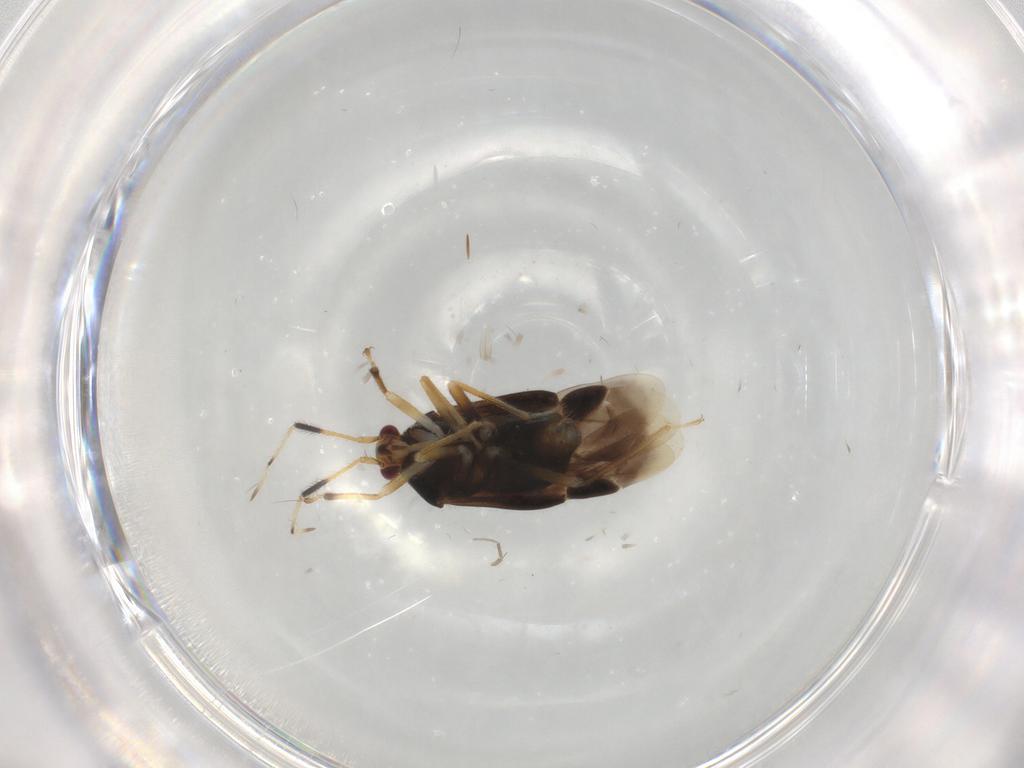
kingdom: Animalia
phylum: Arthropoda
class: Insecta
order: Hemiptera
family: Miridae
